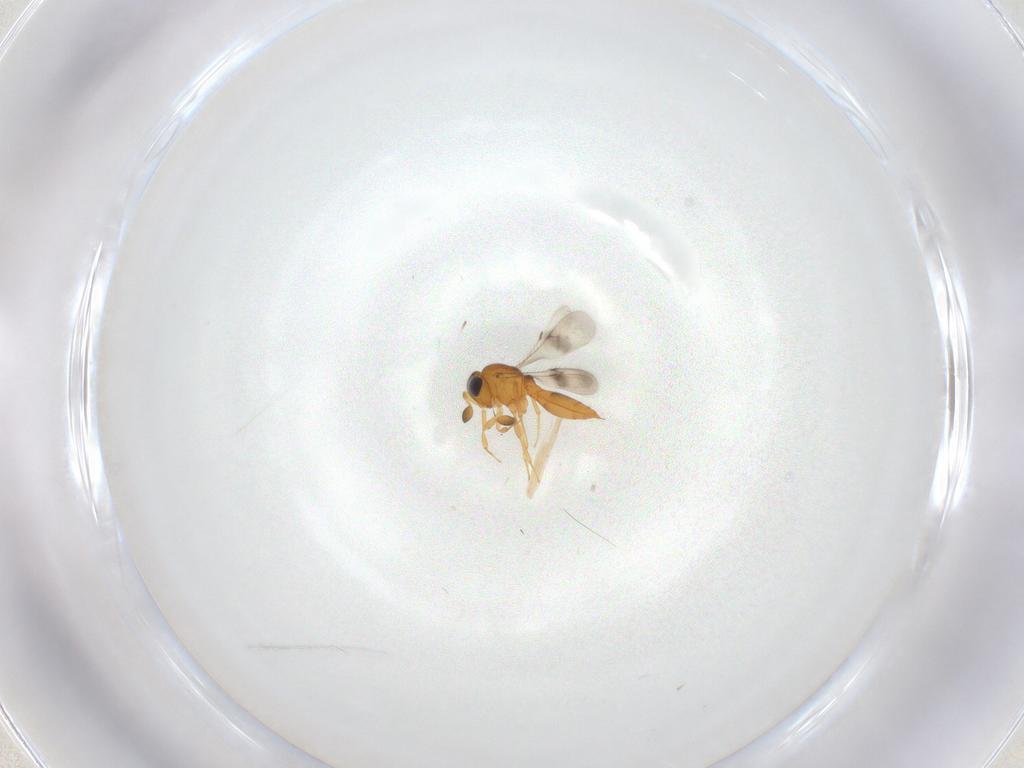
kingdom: Animalia
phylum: Arthropoda
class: Insecta
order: Hymenoptera
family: Scelionidae
